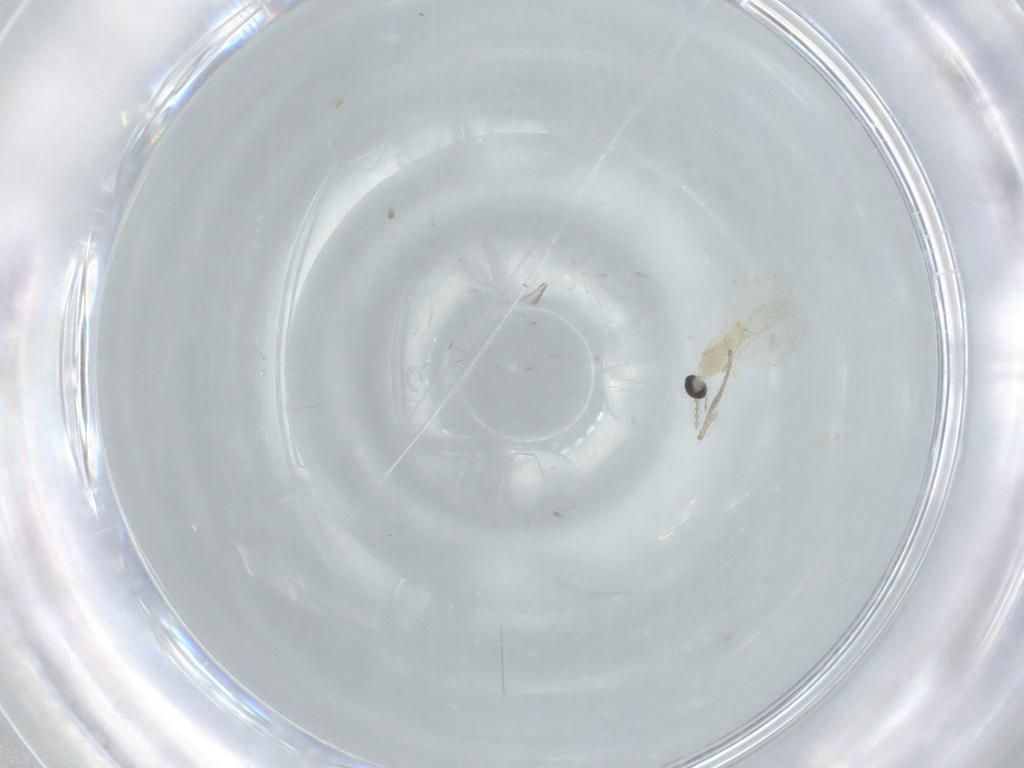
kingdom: Animalia
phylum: Arthropoda
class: Insecta
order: Diptera
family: Cecidomyiidae
